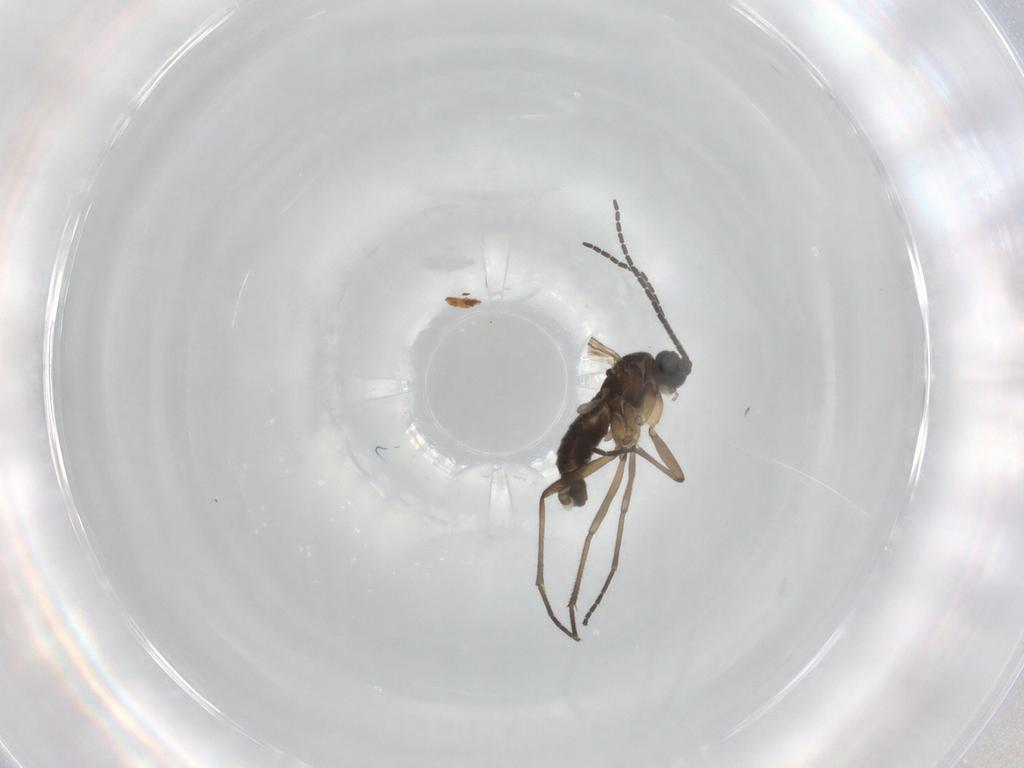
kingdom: Animalia
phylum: Arthropoda
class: Insecta
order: Diptera
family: Sciaridae
